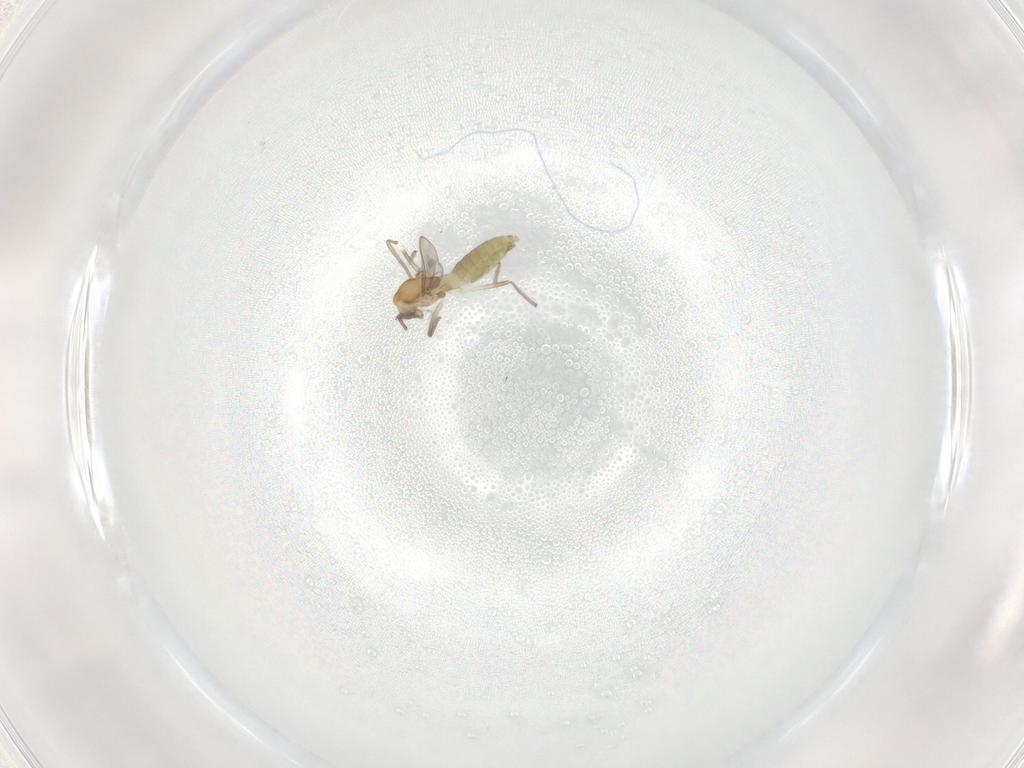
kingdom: Animalia
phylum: Arthropoda
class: Insecta
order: Diptera
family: Chironomidae
